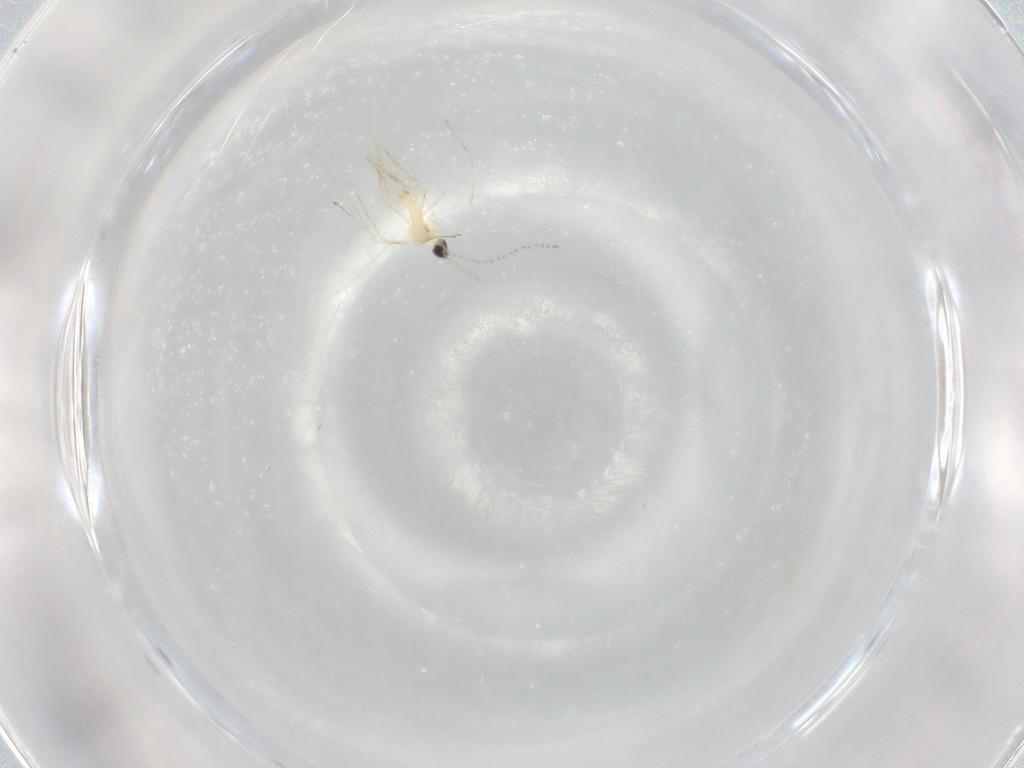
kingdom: Animalia
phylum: Arthropoda
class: Insecta
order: Diptera
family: Cecidomyiidae
